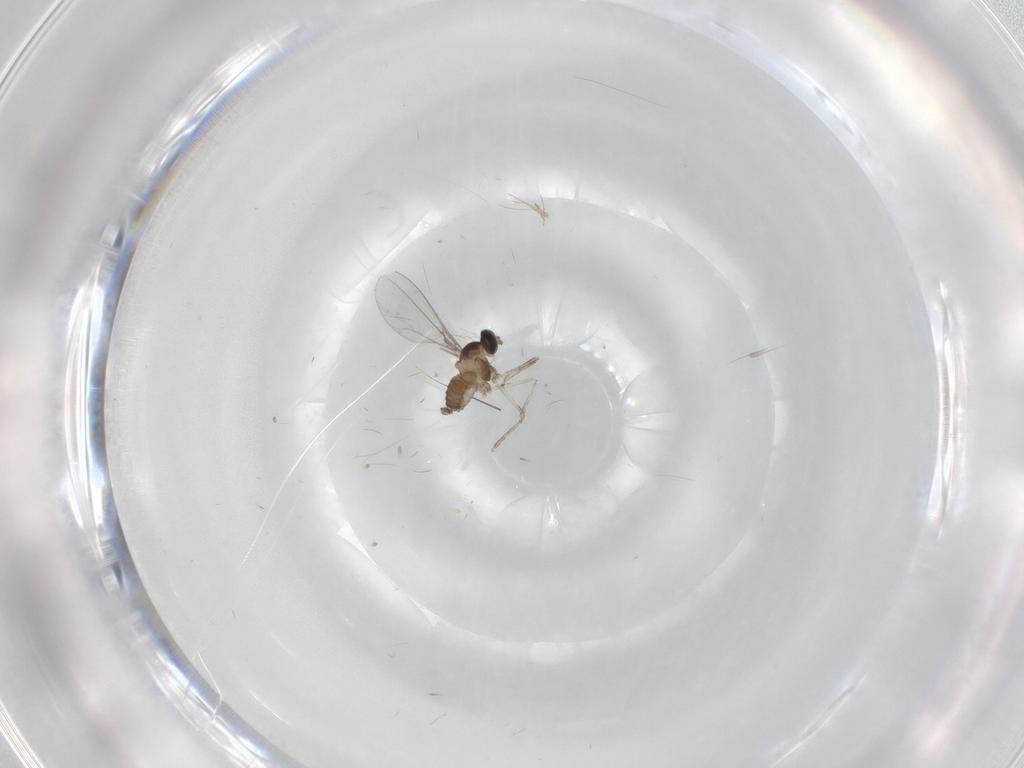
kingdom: Animalia
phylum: Arthropoda
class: Insecta
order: Diptera
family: Cecidomyiidae
